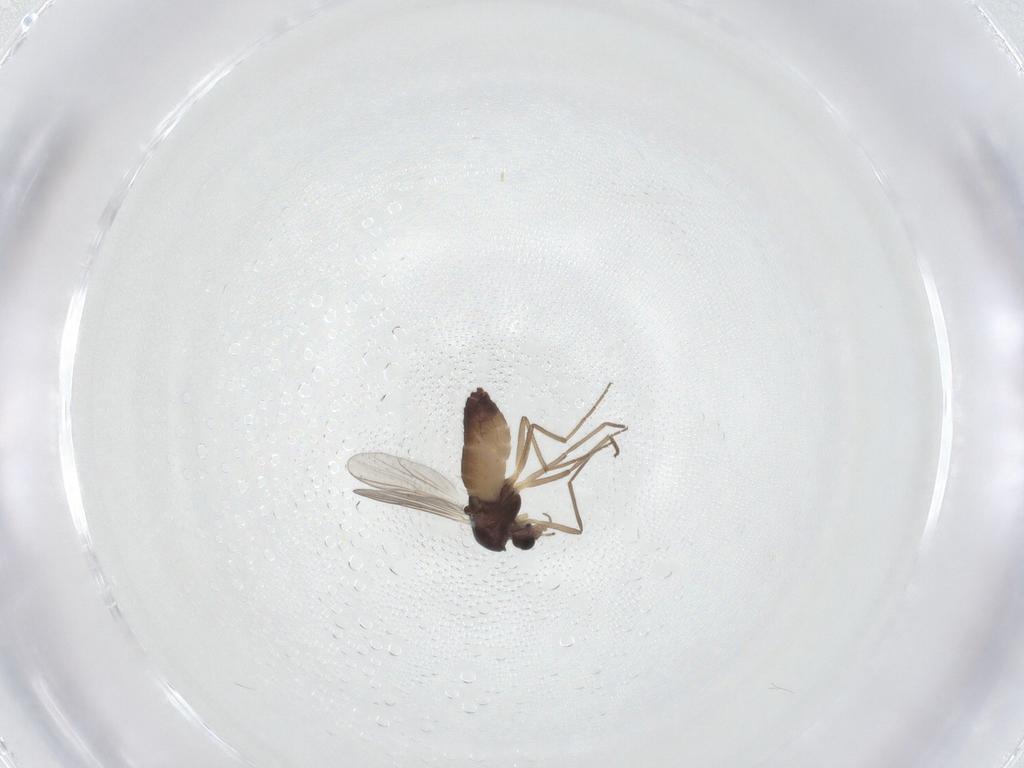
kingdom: Animalia
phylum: Arthropoda
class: Insecta
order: Diptera
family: Chironomidae
